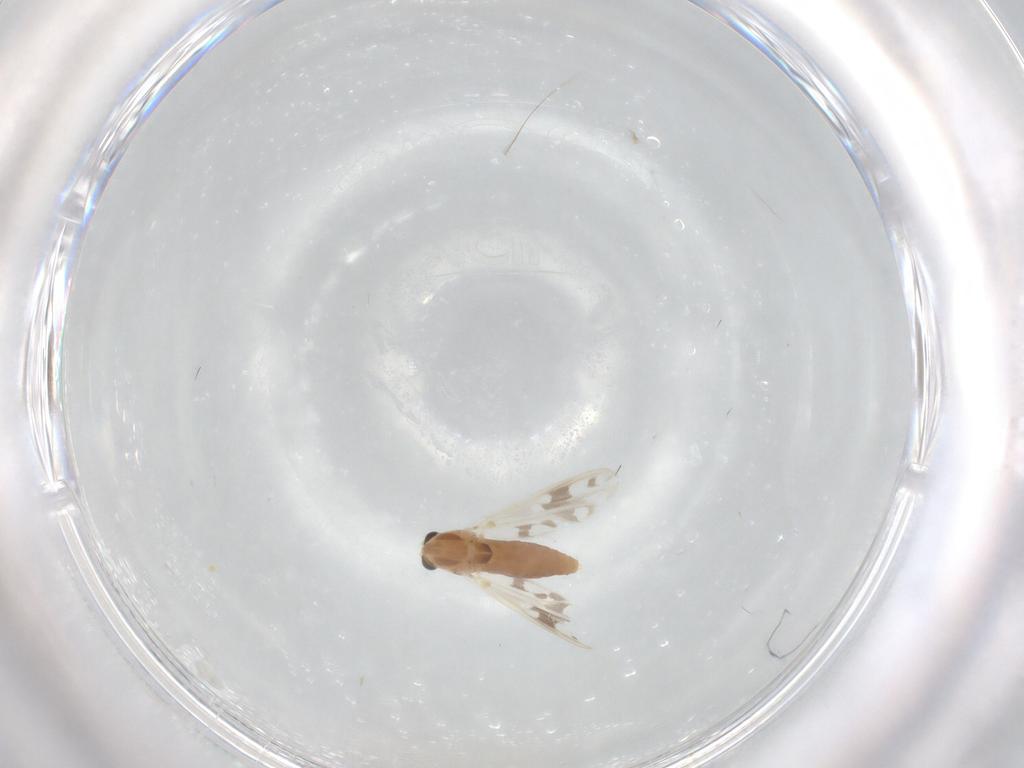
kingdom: Animalia
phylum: Arthropoda
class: Insecta
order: Diptera
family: Chironomidae
